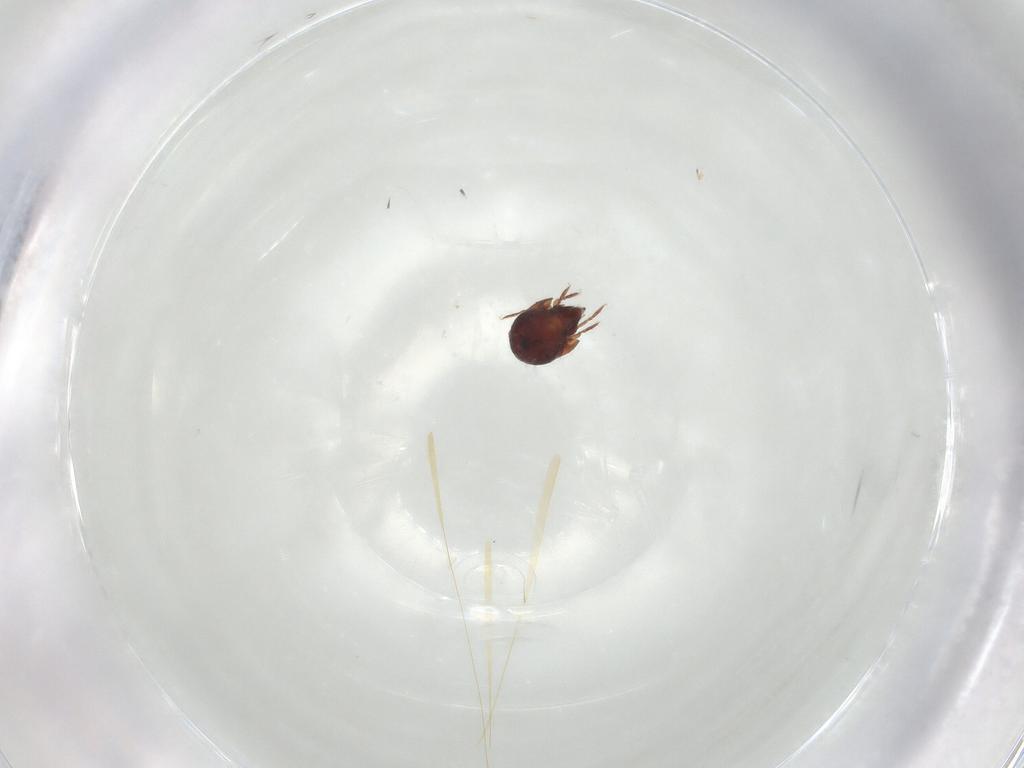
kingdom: Animalia
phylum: Arthropoda
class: Arachnida
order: Sarcoptiformes
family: Humerobatidae
